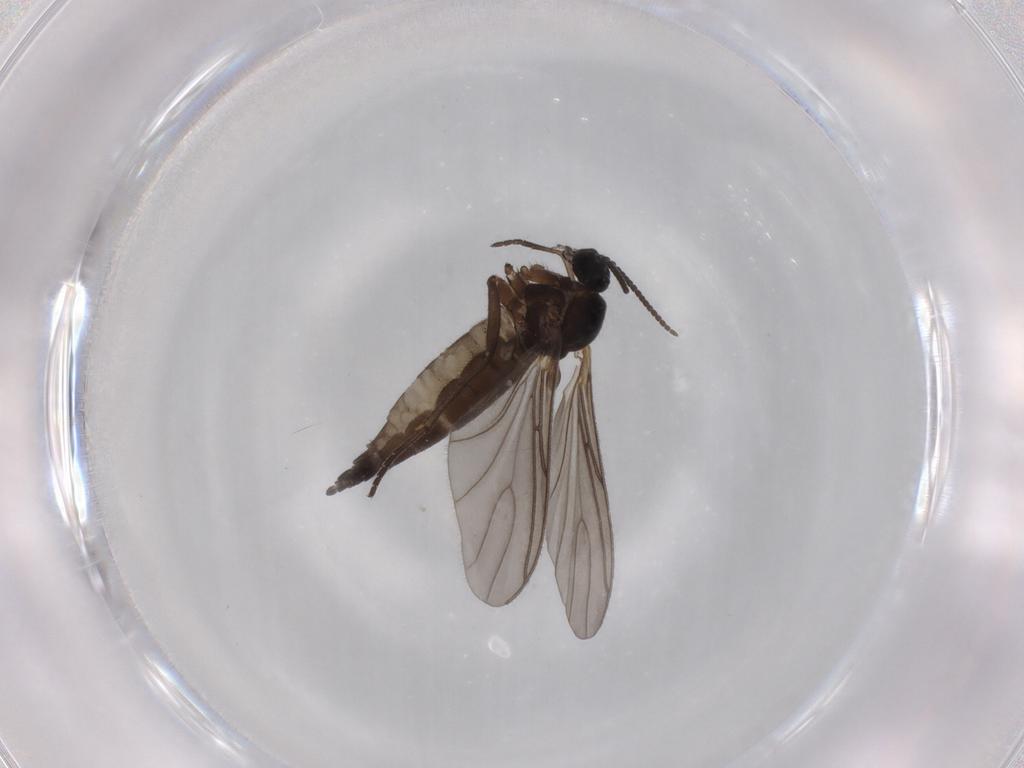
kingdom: Animalia
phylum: Arthropoda
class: Insecta
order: Diptera
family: Sciaridae
